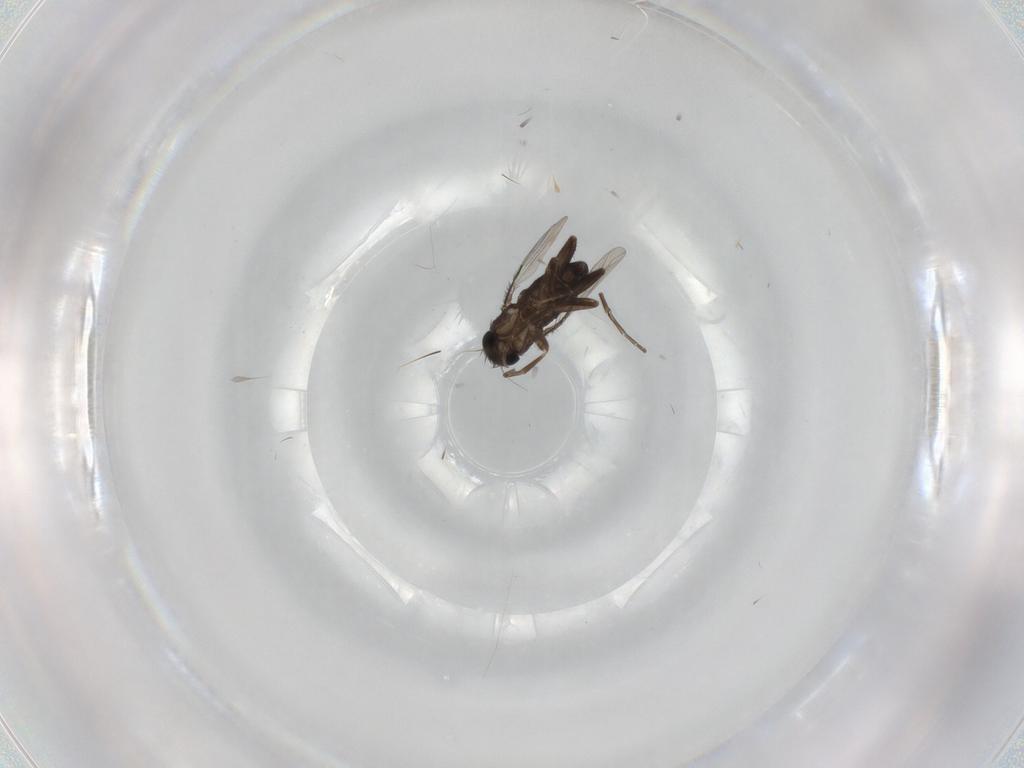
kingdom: Animalia
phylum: Arthropoda
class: Insecta
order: Diptera
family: Phoridae
